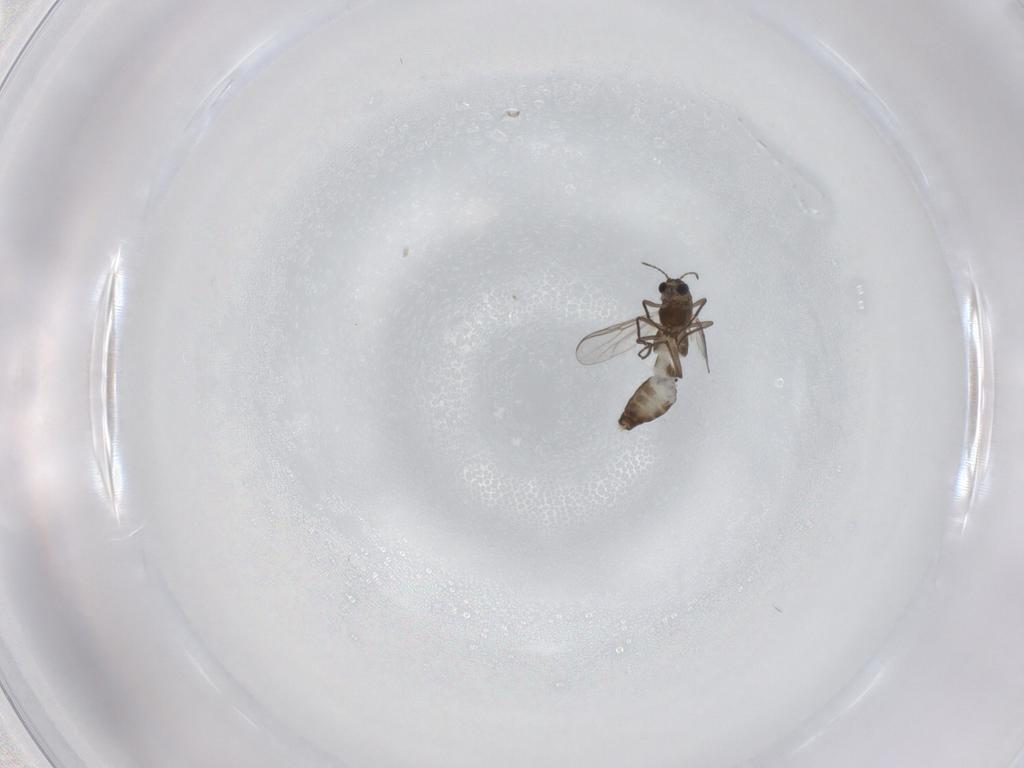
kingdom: Animalia
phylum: Arthropoda
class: Insecta
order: Diptera
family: Chironomidae
